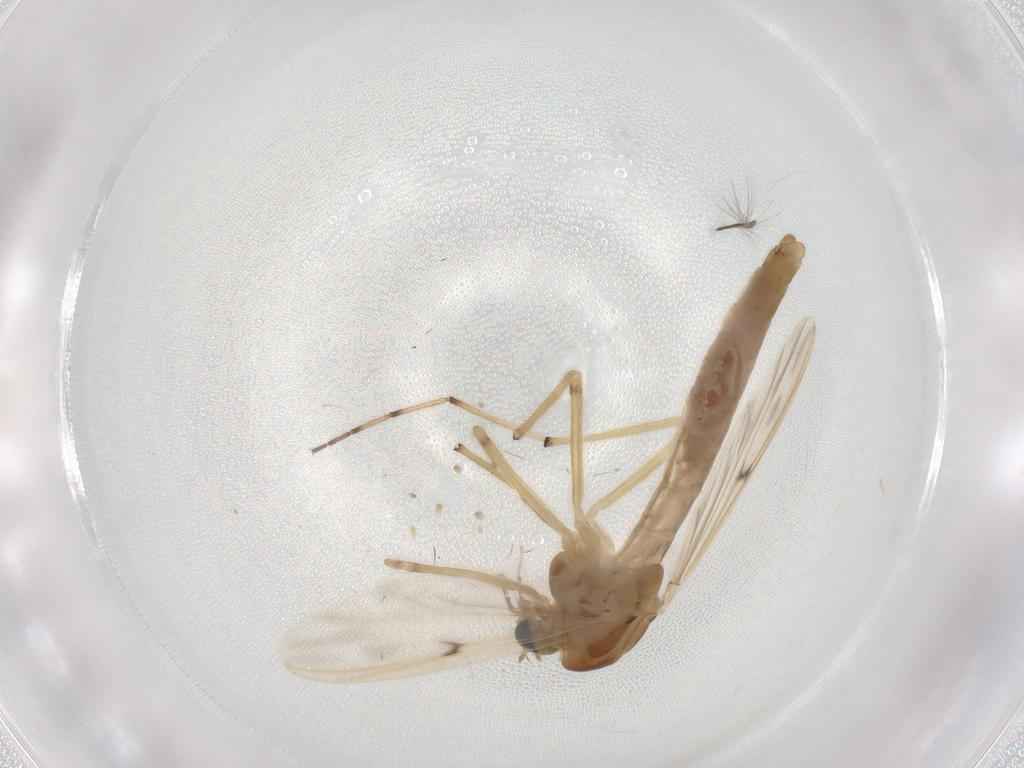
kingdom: Animalia
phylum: Arthropoda
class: Insecta
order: Diptera
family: Chironomidae
